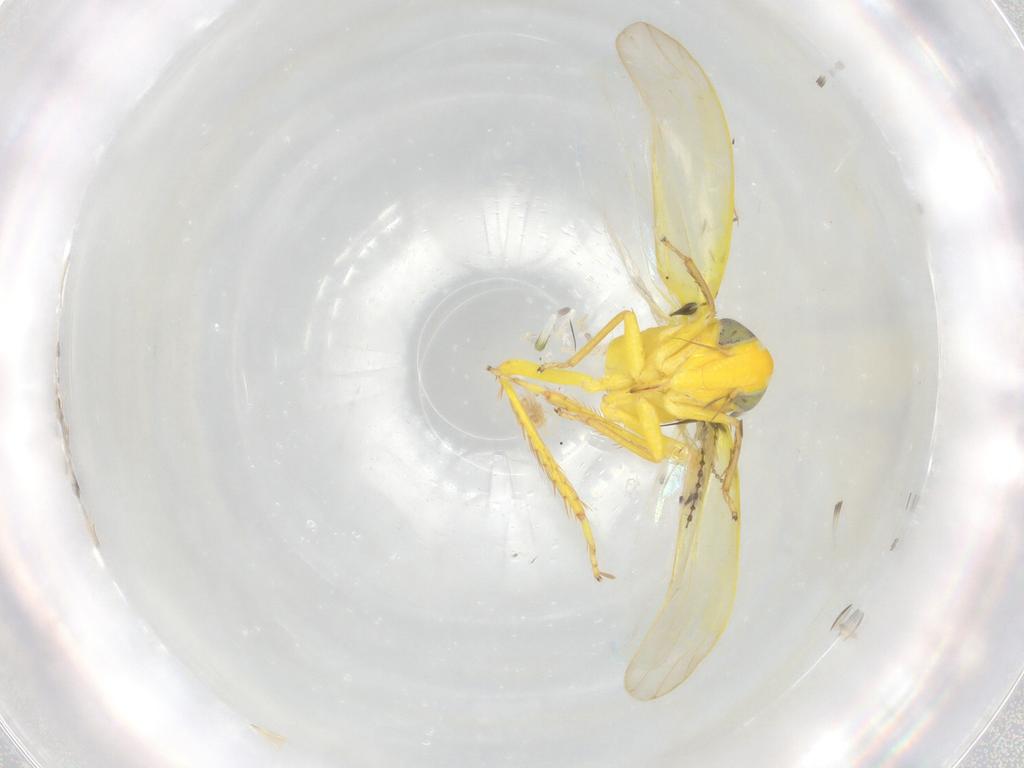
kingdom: Animalia
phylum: Arthropoda
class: Insecta
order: Hemiptera
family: Cicadellidae
